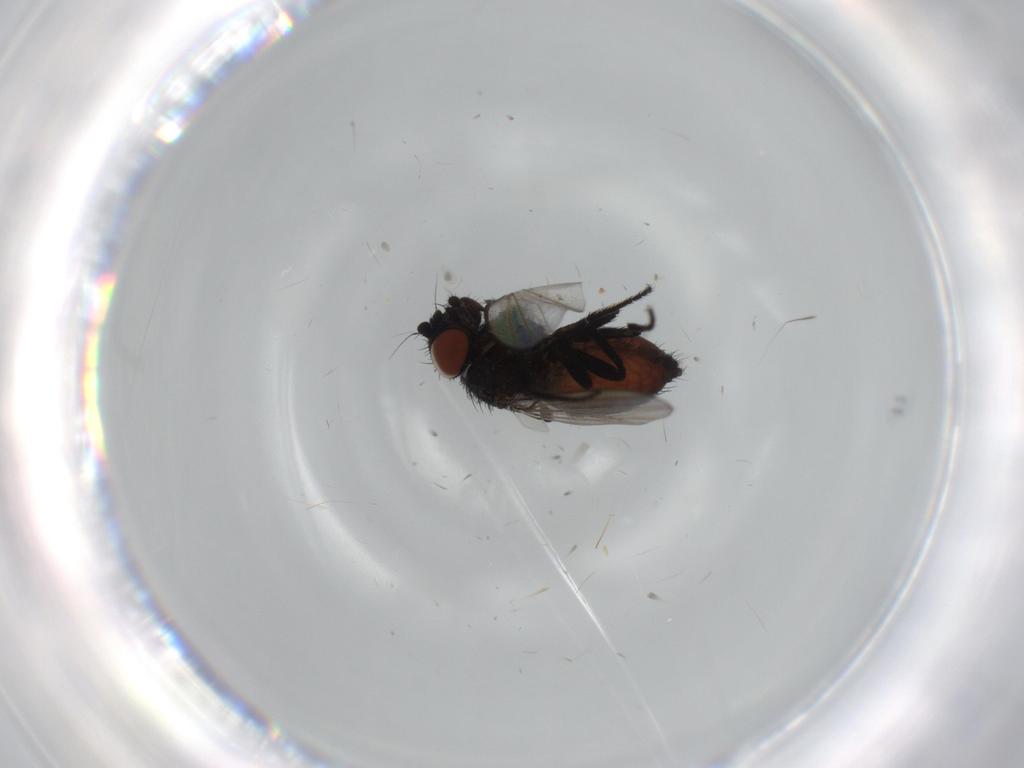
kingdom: Animalia
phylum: Arthropoda
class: Insecta
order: Diptera
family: Milichiidae
